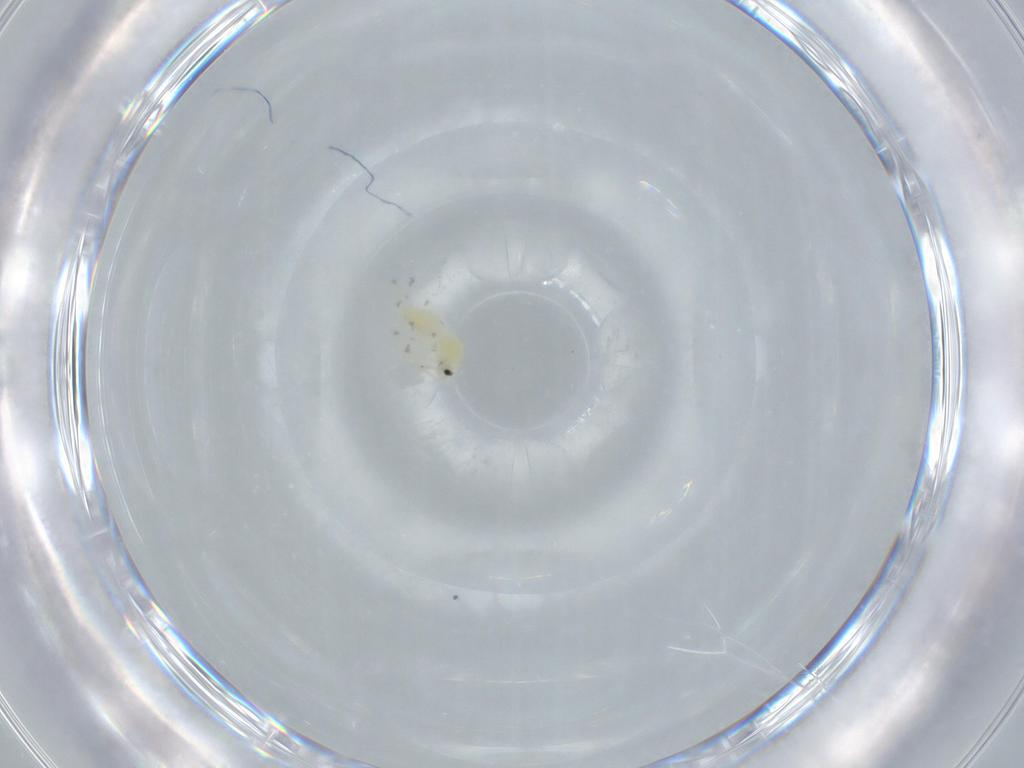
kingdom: Animalia
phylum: Arthropoda
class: Insecta
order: Hemiptera
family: Aleyrodidae
